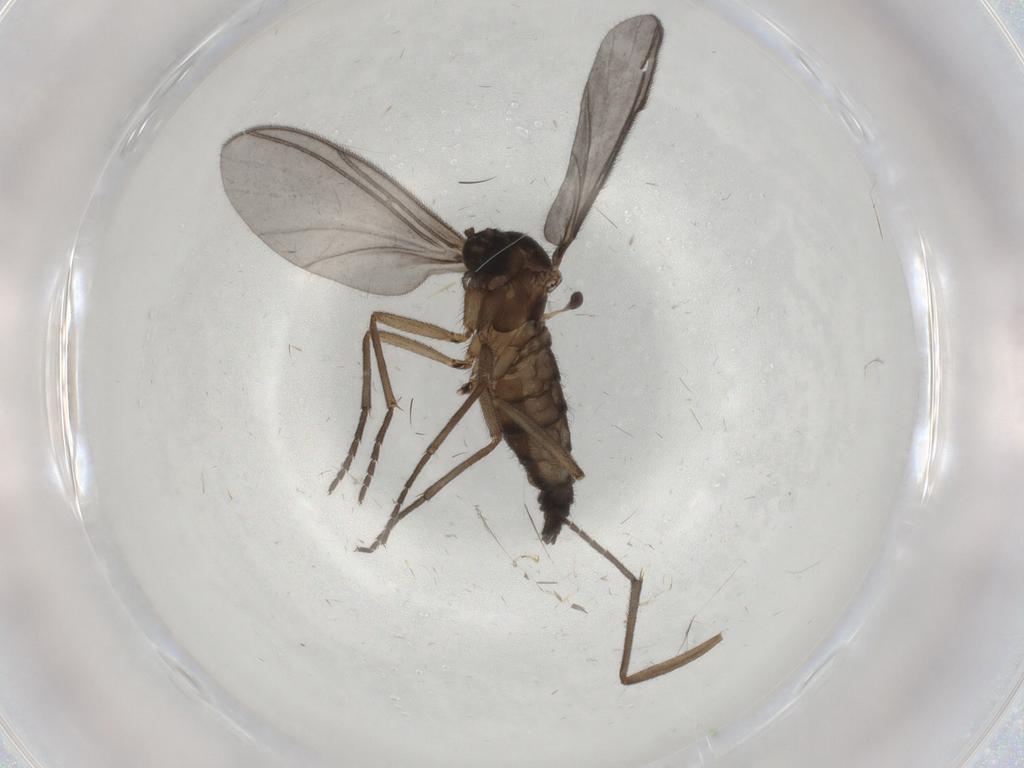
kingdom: Animalia
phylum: Arthropoda
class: Insecta
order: Diptera
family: Sciaridae
